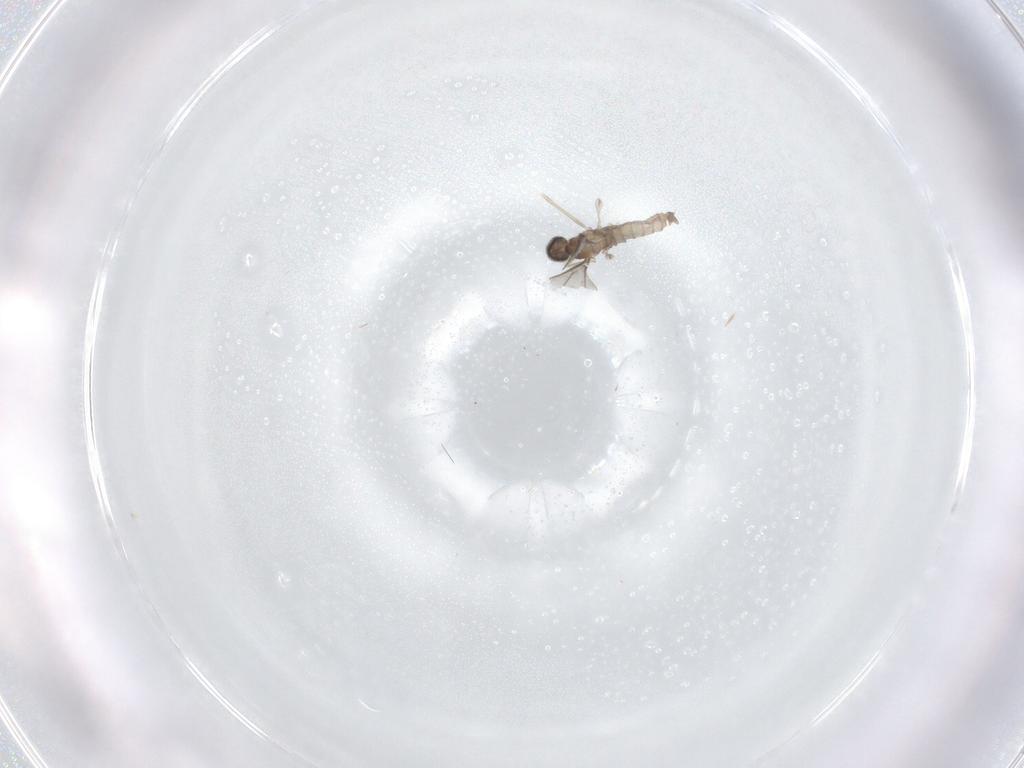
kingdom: Animalia
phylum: Arthropoda
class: Insecta
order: Diptera
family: Cecidomyiidae
